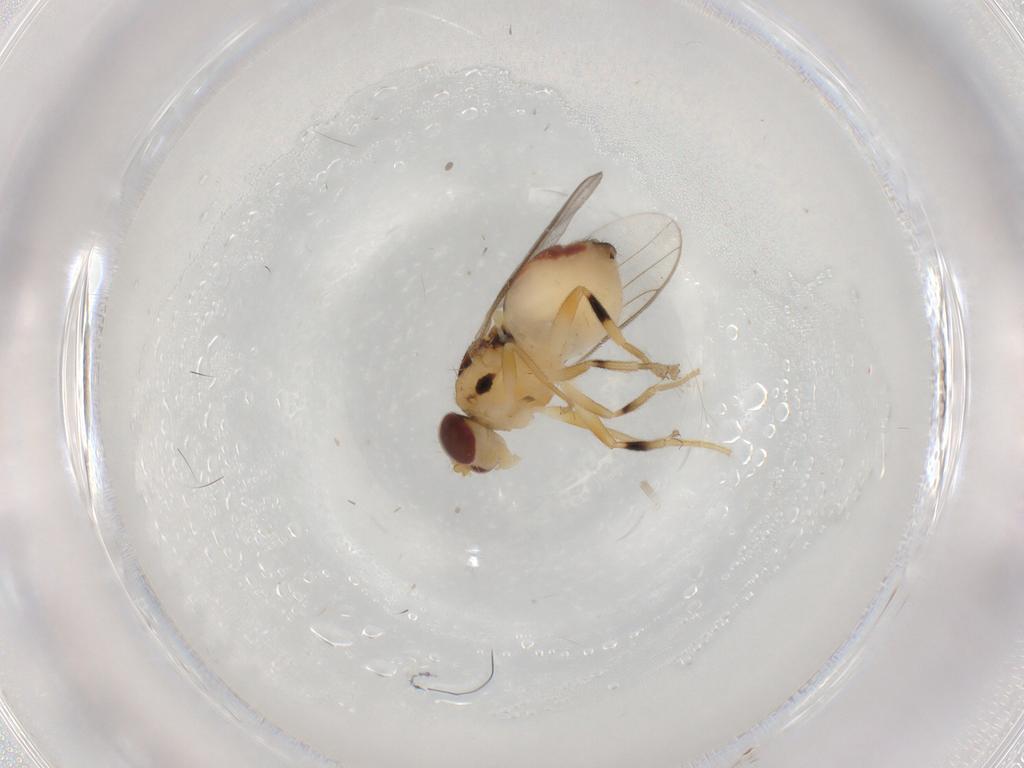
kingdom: Animalia
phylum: Arthropoda
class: Insecta
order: Diptera
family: Chloropidae
